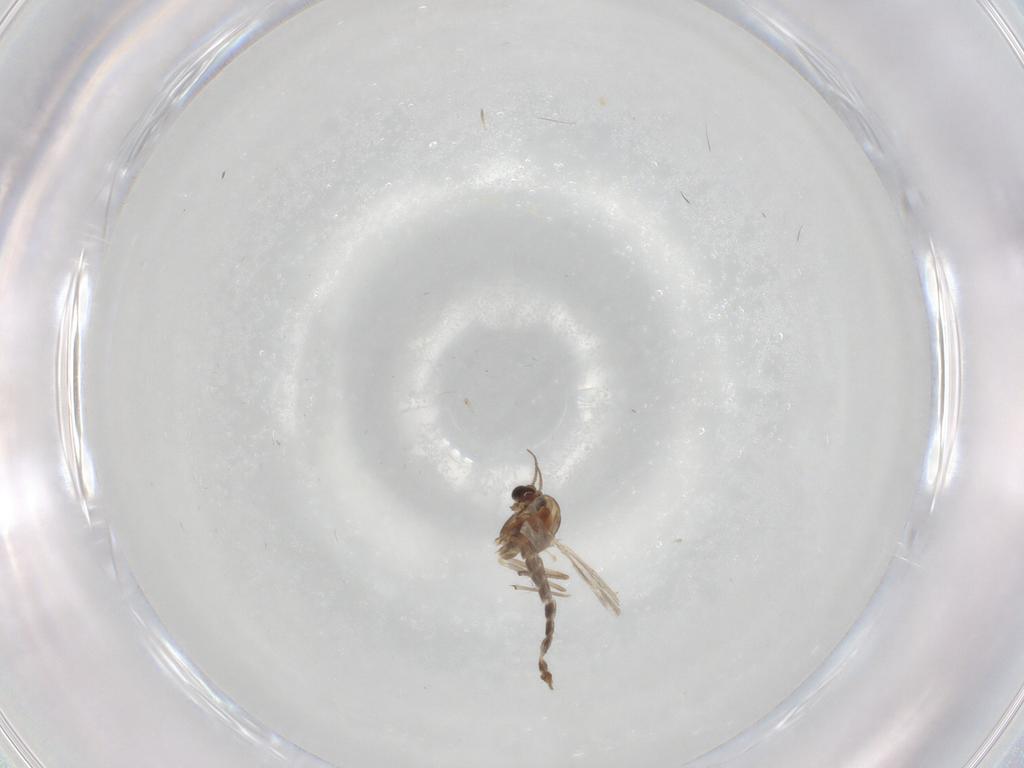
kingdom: Animalia
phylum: Arthropoda
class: Insecta
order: Diptera
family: Chironomidae
